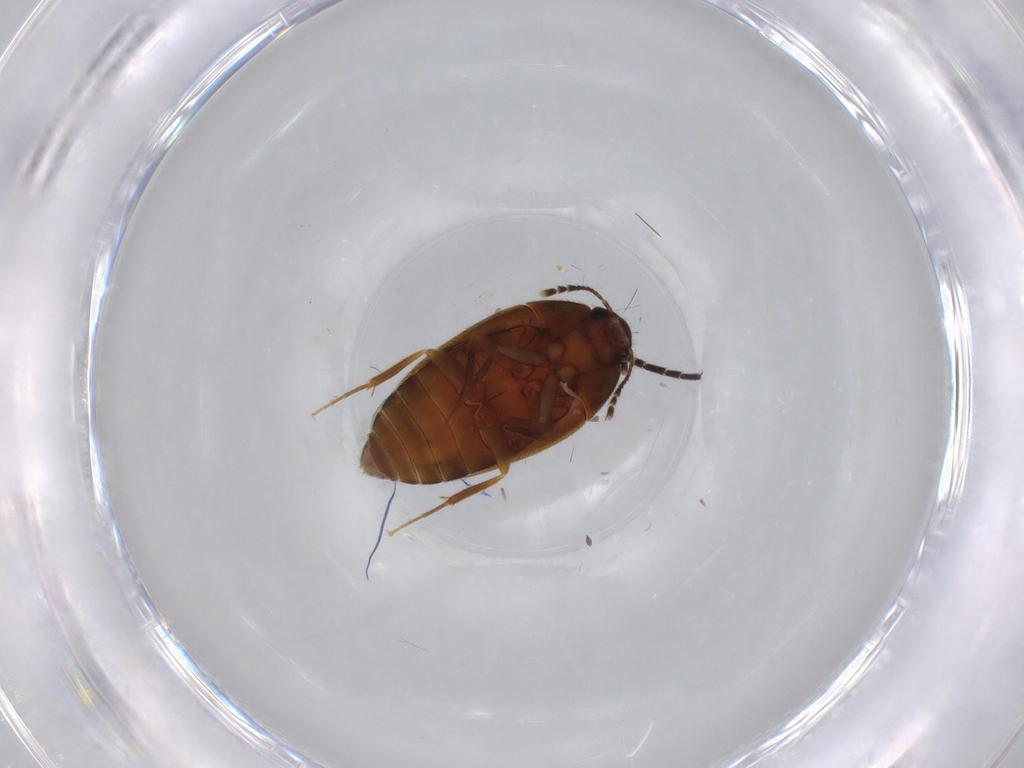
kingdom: Animalia
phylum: Arthropoda
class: Insecta
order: Coleoptera
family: Mycetophagidae
